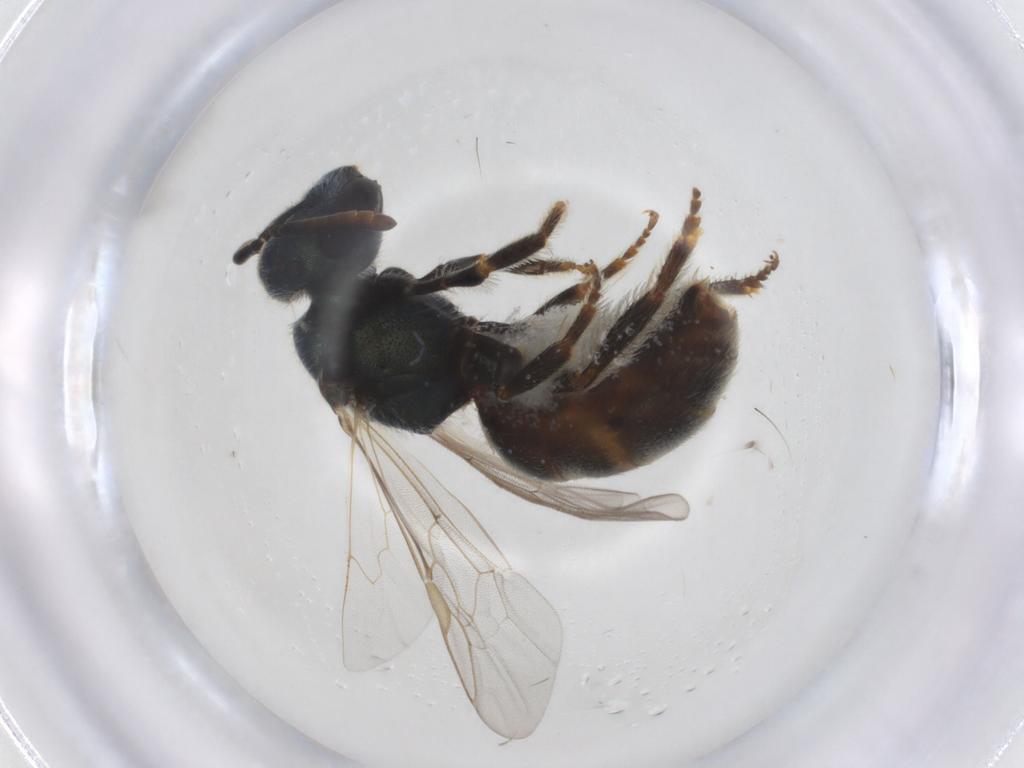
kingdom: Animalia
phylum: Arthropoda
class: Insecta
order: Hymenoptera
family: Halictidae
